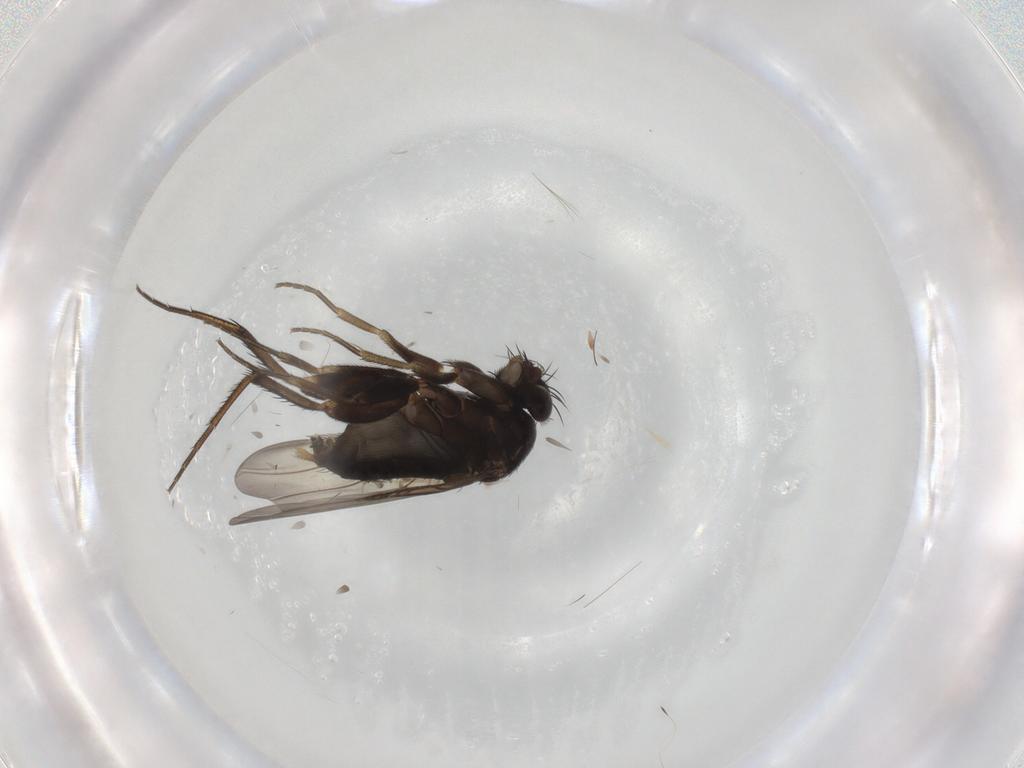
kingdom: Animalia
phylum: Arthropoda
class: Insecta
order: Diptera
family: Phoridae
